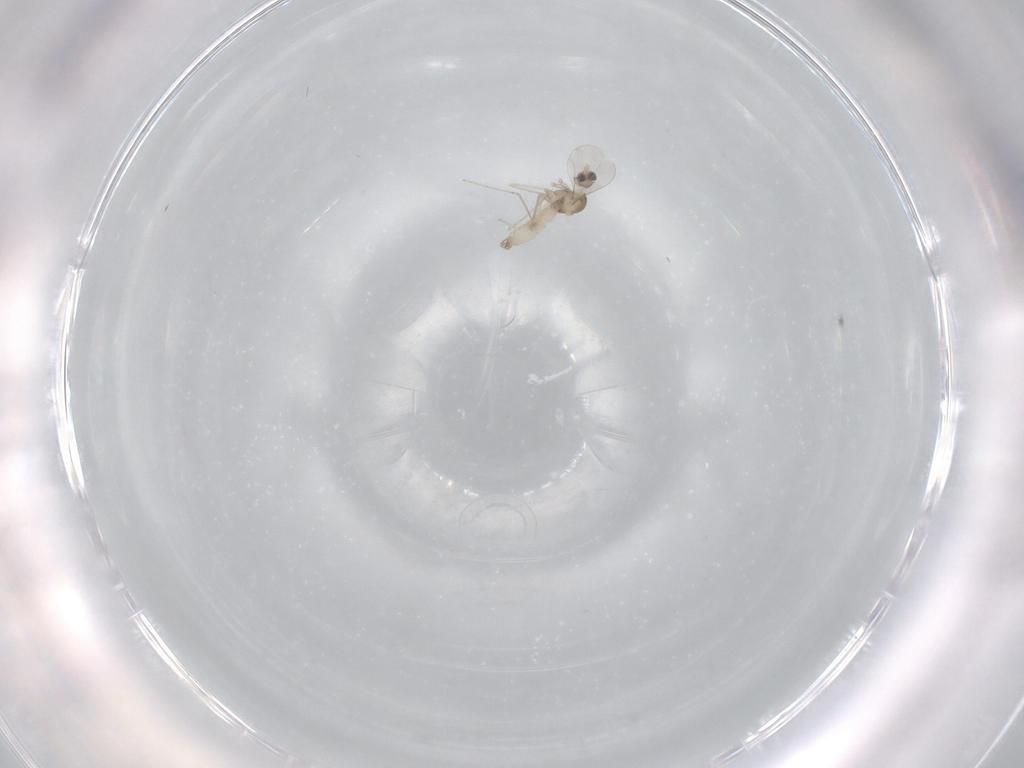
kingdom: Animalia
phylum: Arthropoda
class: Insecta
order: Diptera
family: Cecidomyiidae
